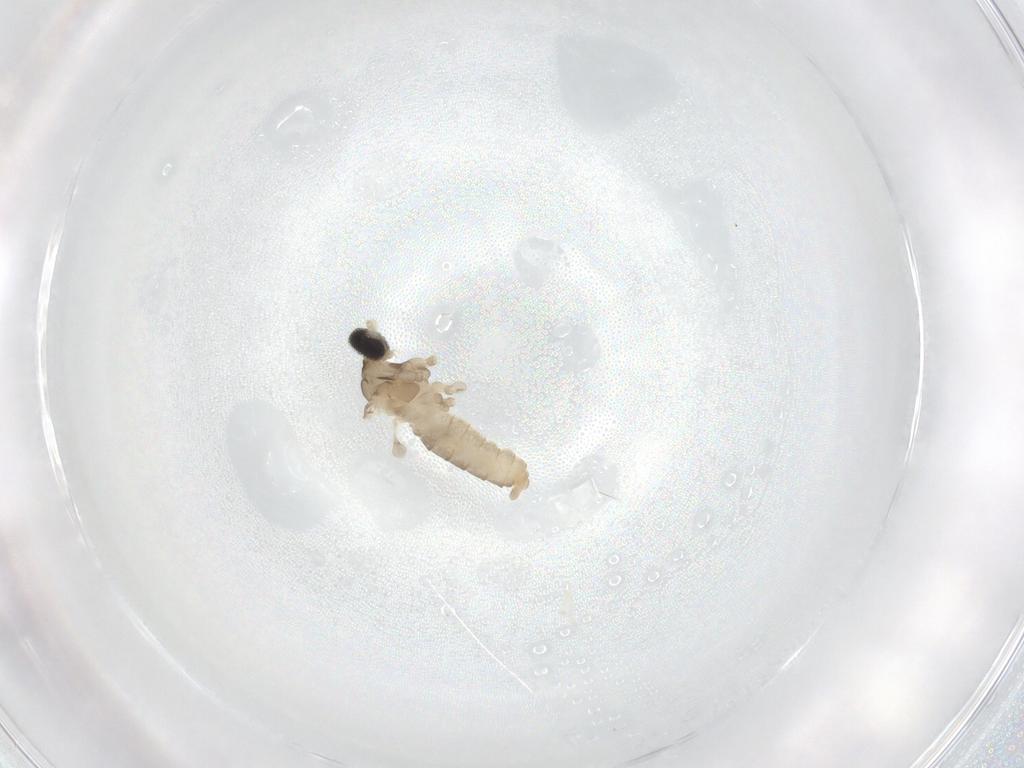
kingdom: Animalia
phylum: Arthropoda
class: Insecta
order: Diptera
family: Cecidomyiidae
